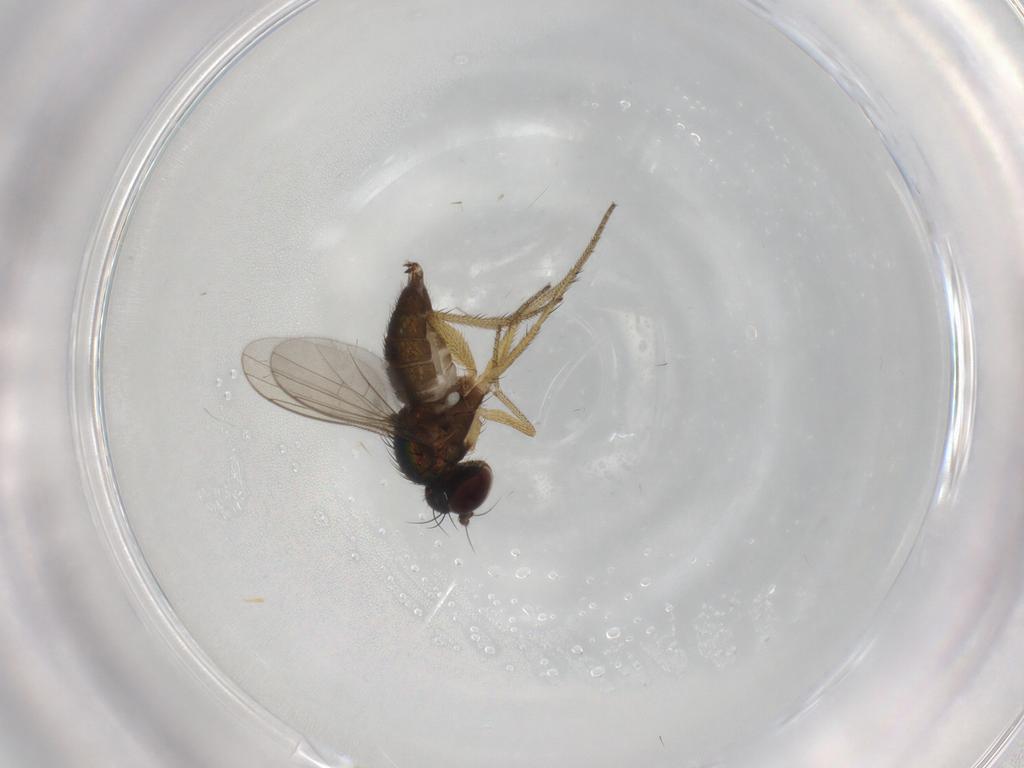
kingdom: Animalia
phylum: Arthropoda
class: Insecta
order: Diptera
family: Dolichopodidae
